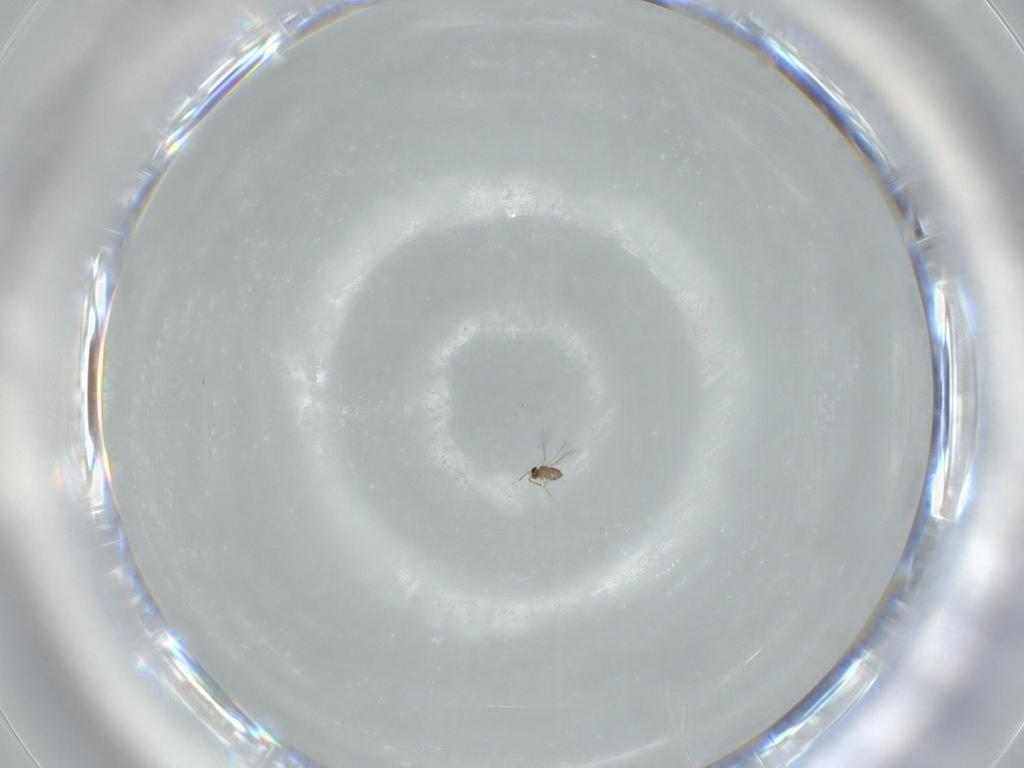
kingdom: Animalia
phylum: Arthropoda
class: Insecta
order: Hymenoptera
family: Mymaridae
